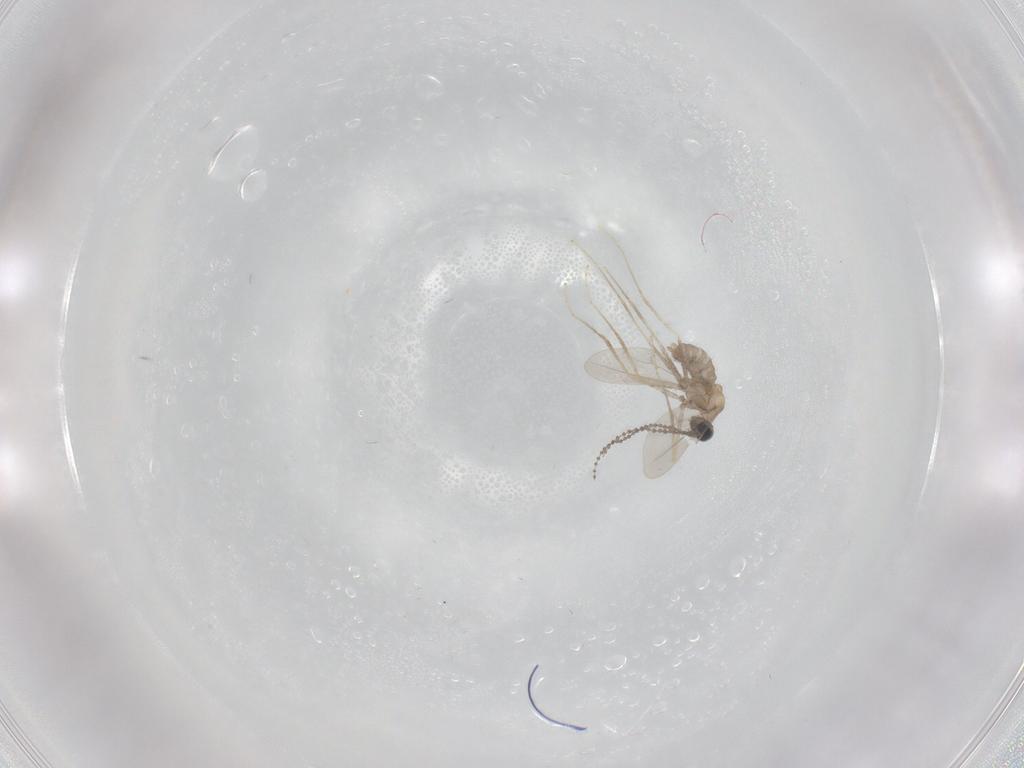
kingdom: Animalia
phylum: Arthropoda
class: Insecta
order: Diptera
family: Cecidomyiidae
